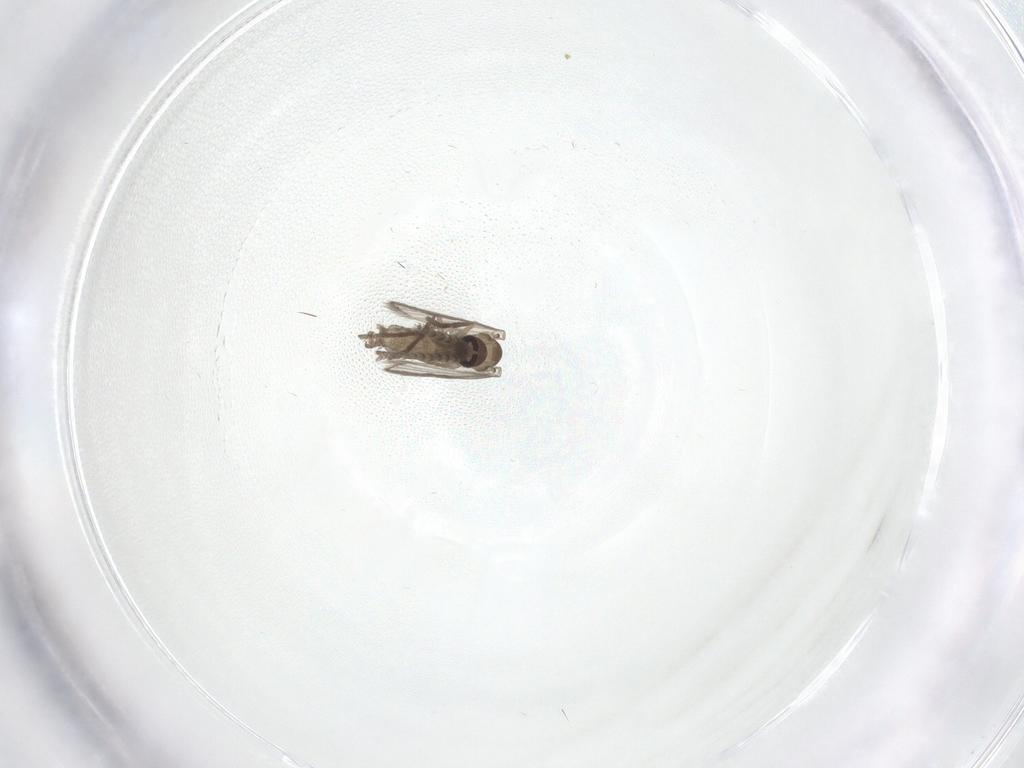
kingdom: Animalia
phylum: Arthropoda
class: Insecta
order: Diptera
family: Psychodidae
